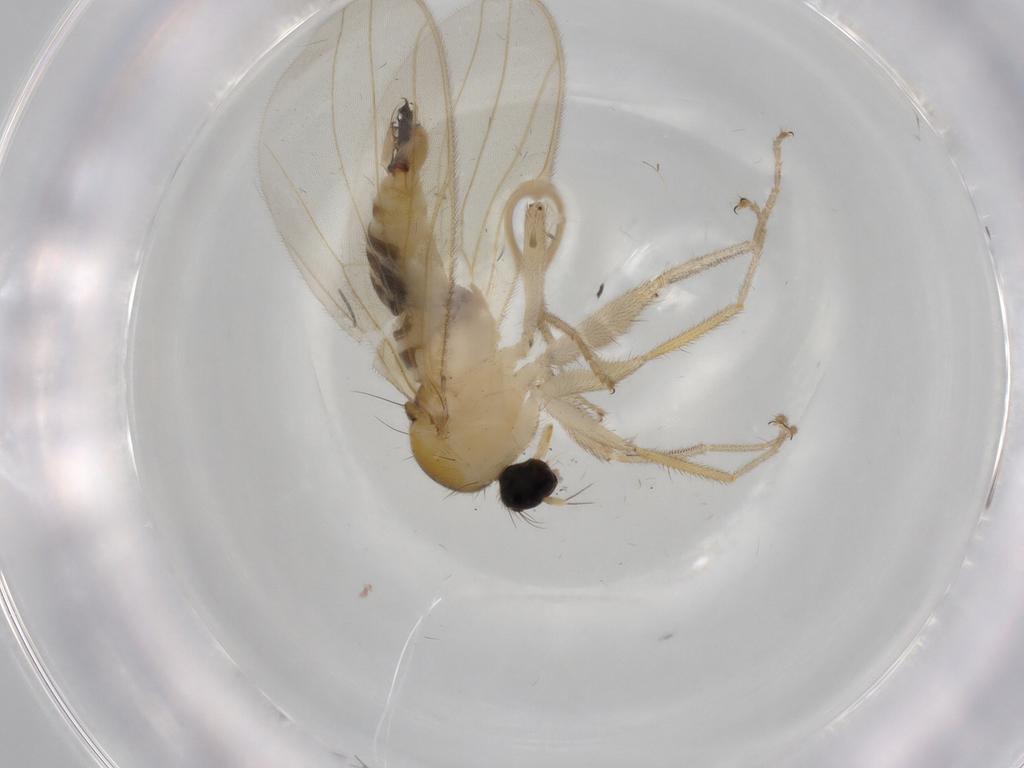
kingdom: Animalia
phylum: Arthropoda
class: Insecta
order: Diptera
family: Hybotidae
